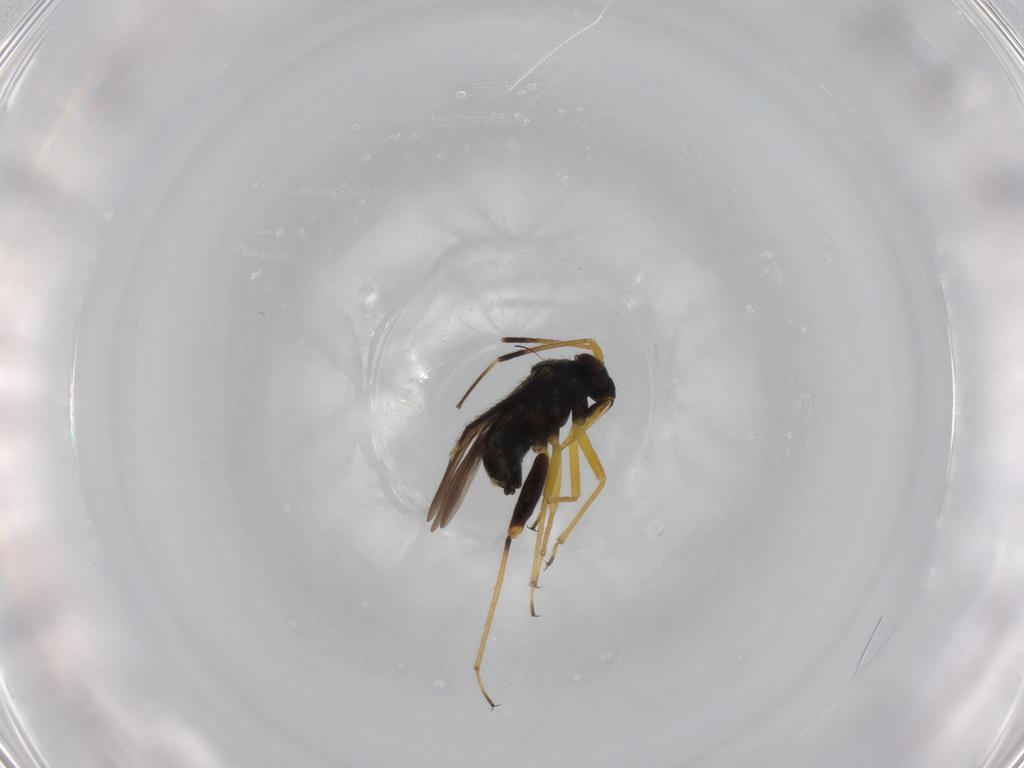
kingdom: Animalia
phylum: Arthropoda
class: Insecta
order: Hemiptera
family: Miridae
